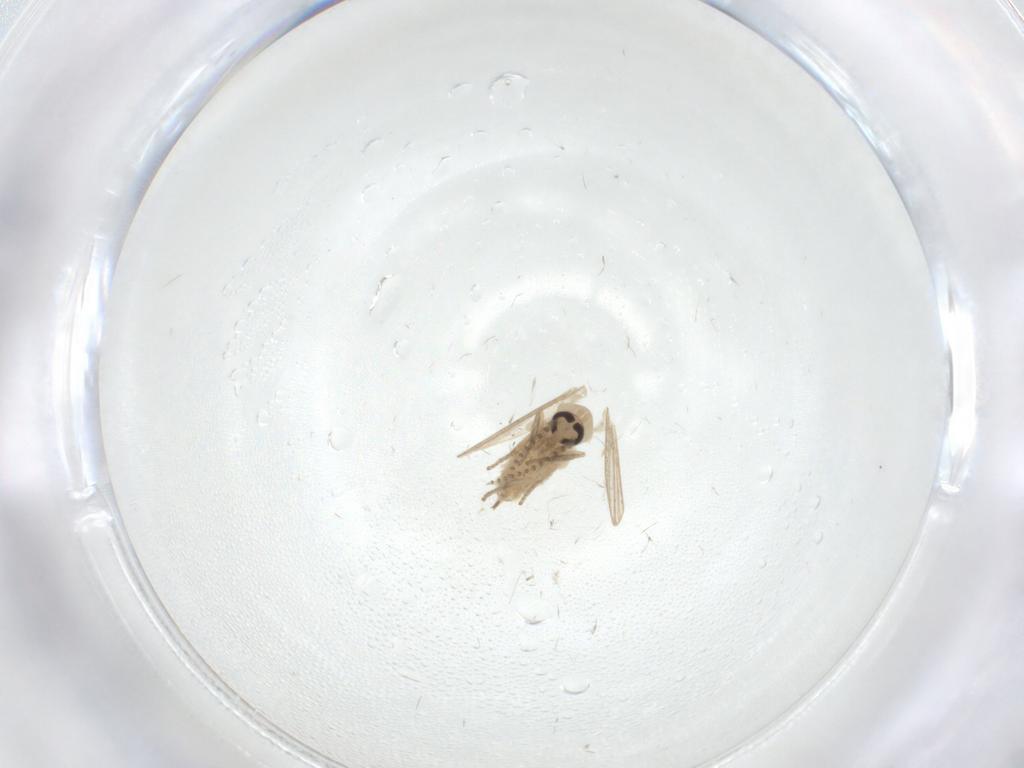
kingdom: Animalia
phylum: Arthropoda
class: Insecta
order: Diptera
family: Psychodidae
